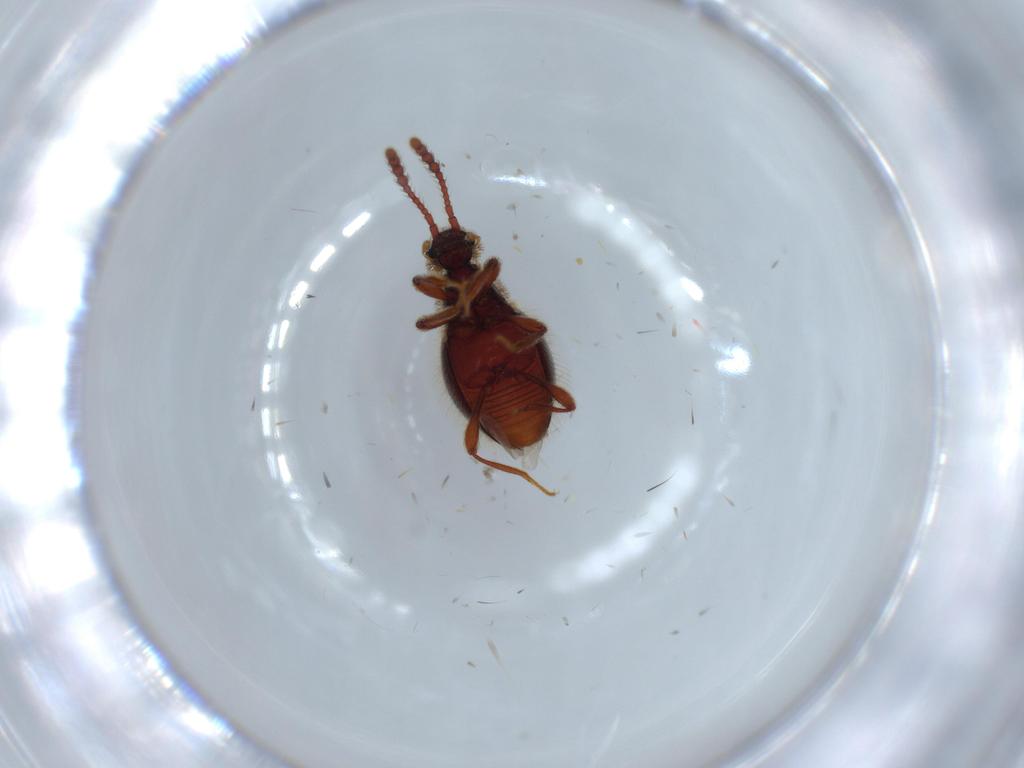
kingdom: Animalia
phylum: Arthropoda
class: Insecta
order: Coleoptera
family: Staphylinidae
